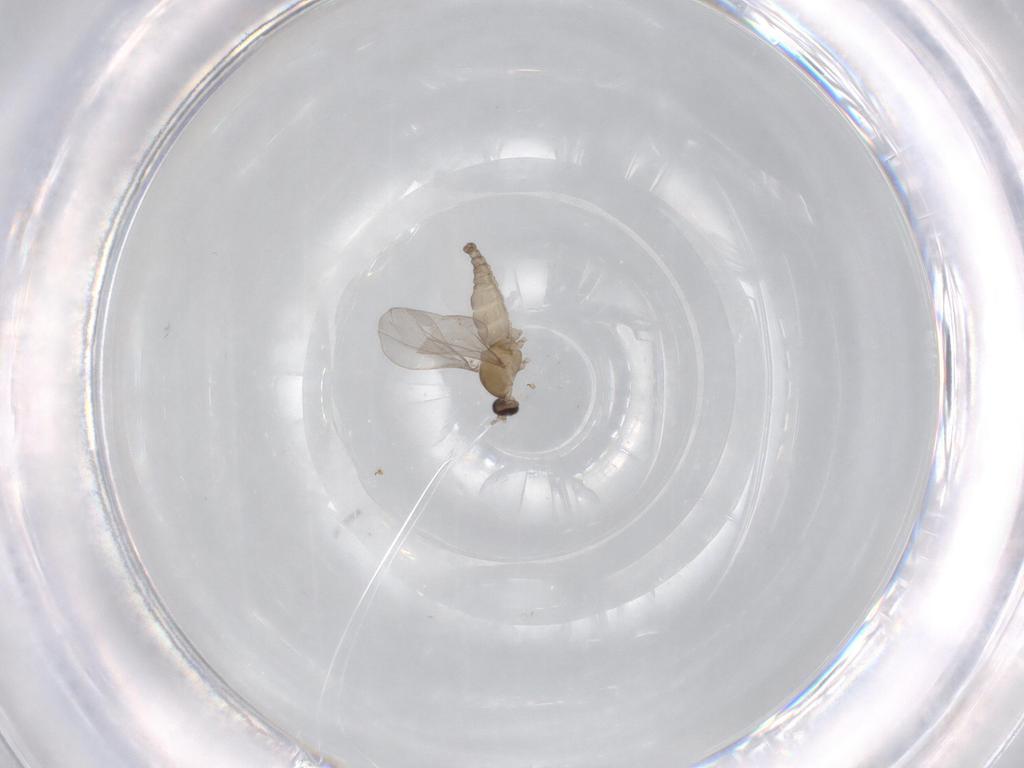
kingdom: Animalia
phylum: Arthropoda
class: Insecta
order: Diptera
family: Cecidomyiidae
